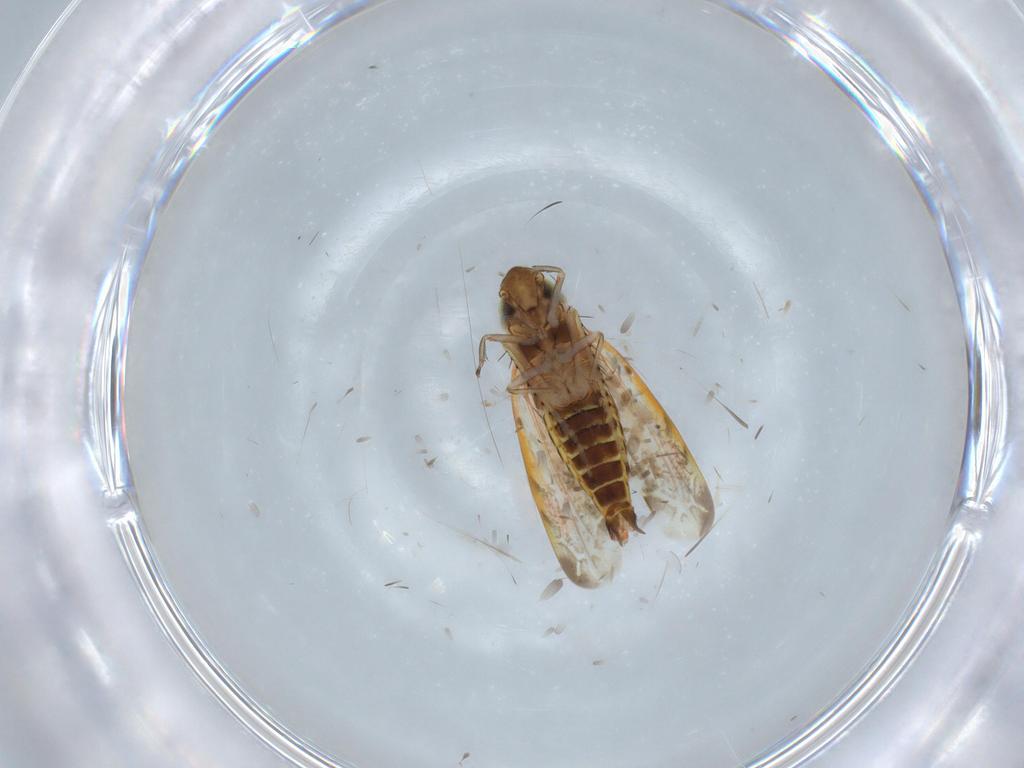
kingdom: Animalia
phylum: Arthropoda
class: Insecta
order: Hemiptera
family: Cicadellidae
